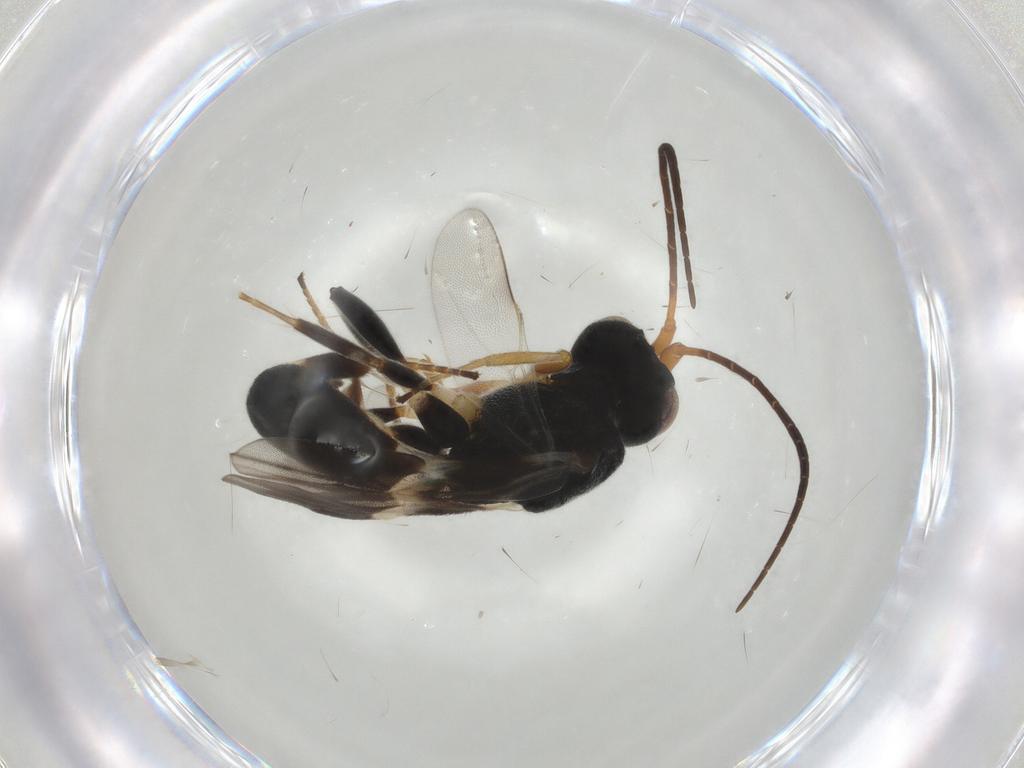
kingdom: Animalia
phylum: Arthropoda
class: Insecta
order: Hymenoptera
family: Braconidae
